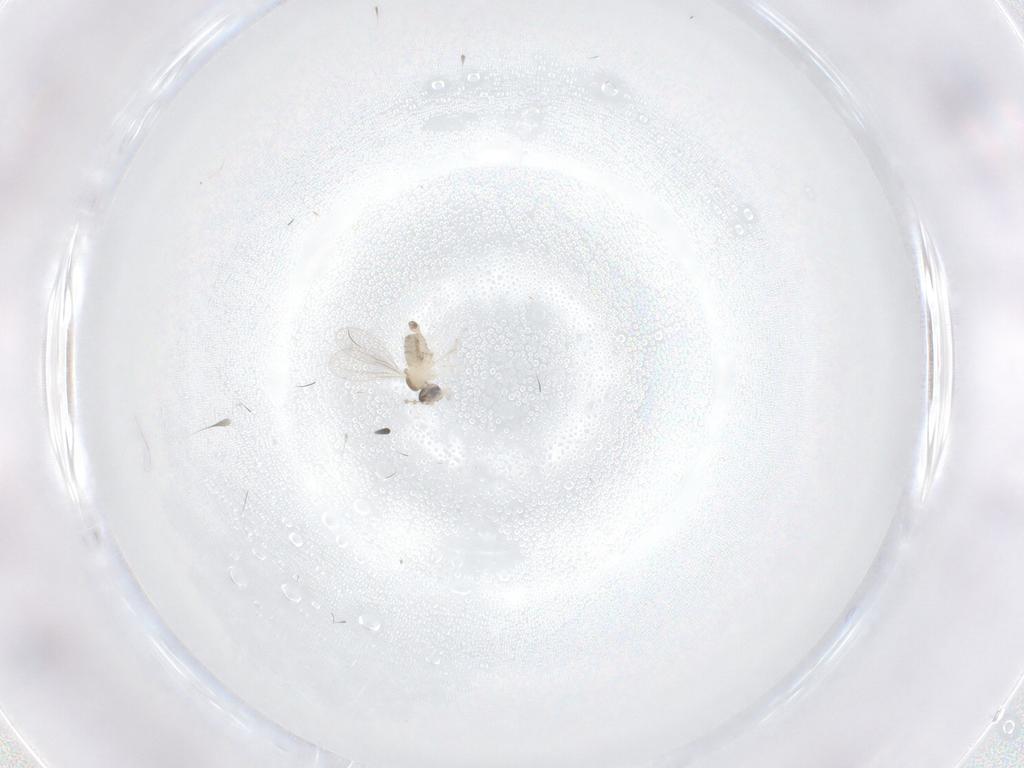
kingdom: Animalia
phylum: Arthropoda
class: Insecta
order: Diptera
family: Cecidomyiidae
